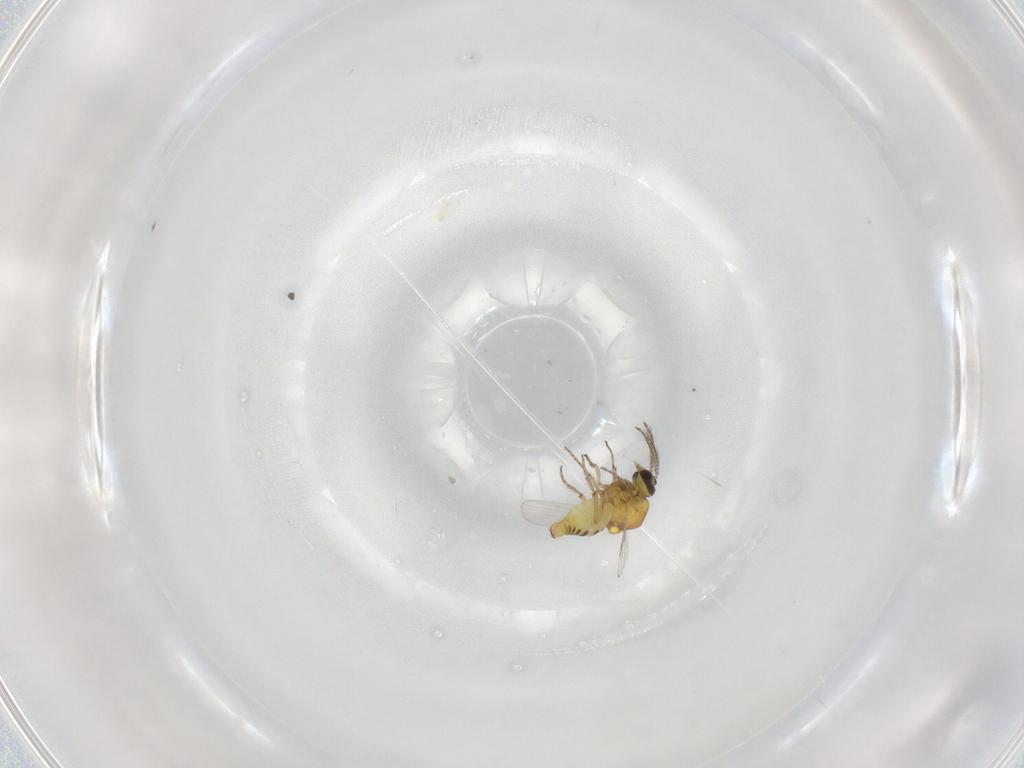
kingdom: Animalia
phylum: Arthropoda
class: Insecta
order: Diptera
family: Ceratopogonidae
